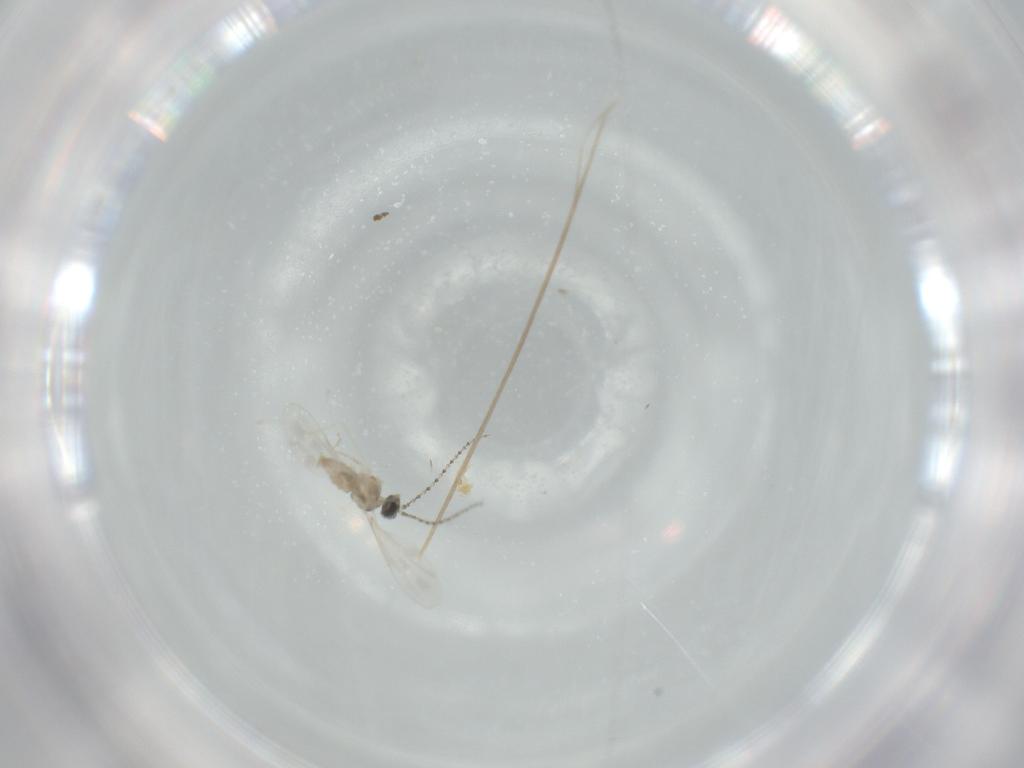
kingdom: Animalia
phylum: Arthropoda
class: Insecta
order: Diptera
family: Cecidomyiidae
